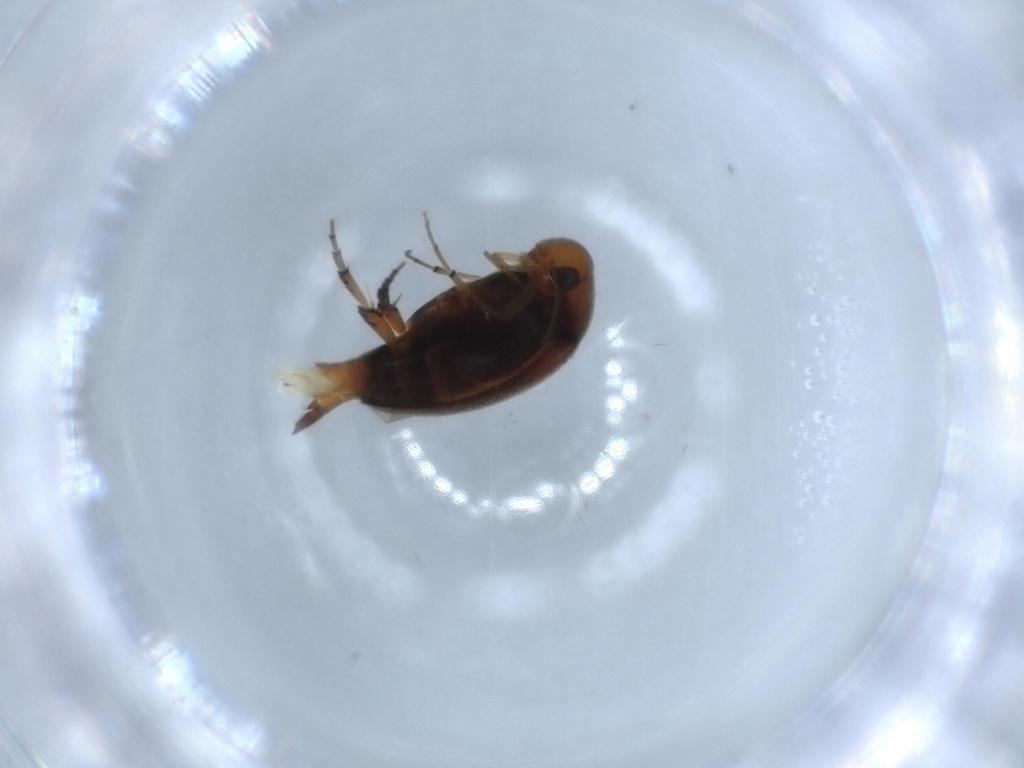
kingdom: Animalia
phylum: Arthropoda
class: Insecta
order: Coleoptera
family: Mordellidae
